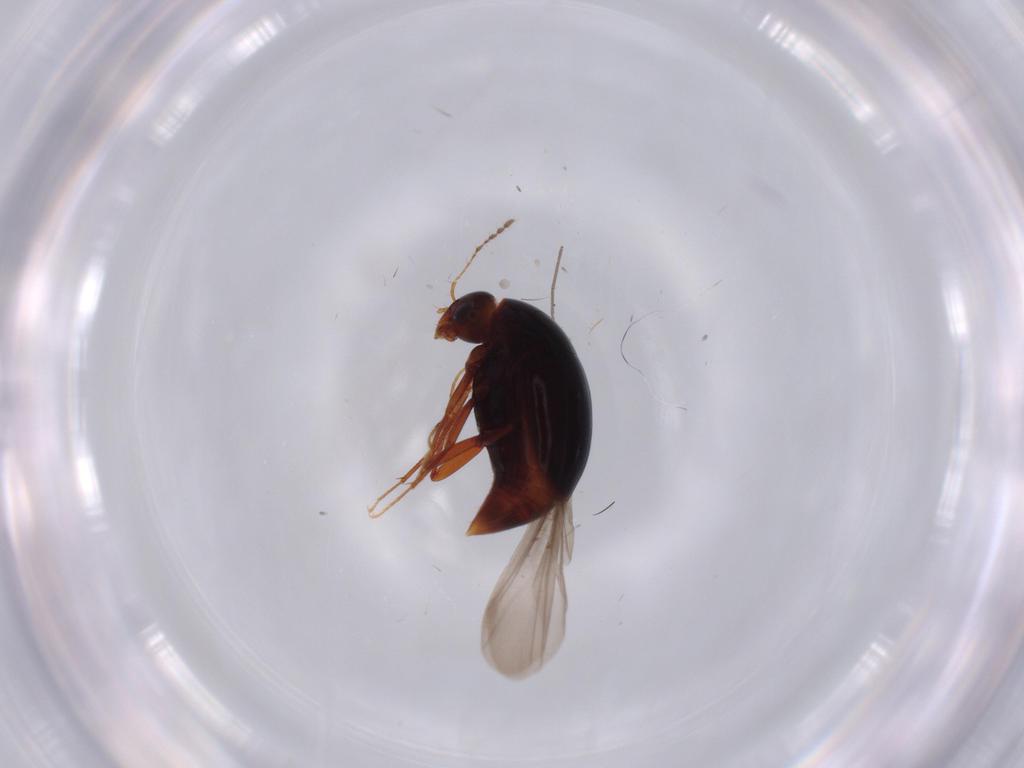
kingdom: Animalia
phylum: Arthropoda
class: Insecta
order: Coleoptera
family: Staphylinidae
